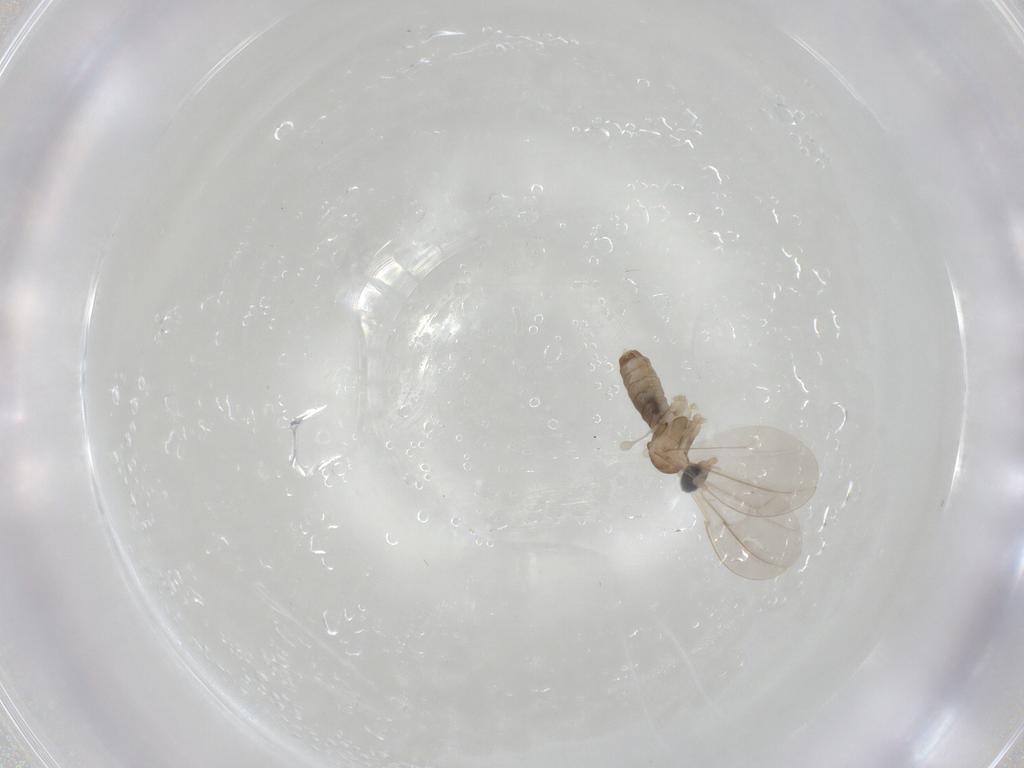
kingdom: Animalia
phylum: Arthropoda
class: Insecta
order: Diptera
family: Cecidomyiidae
